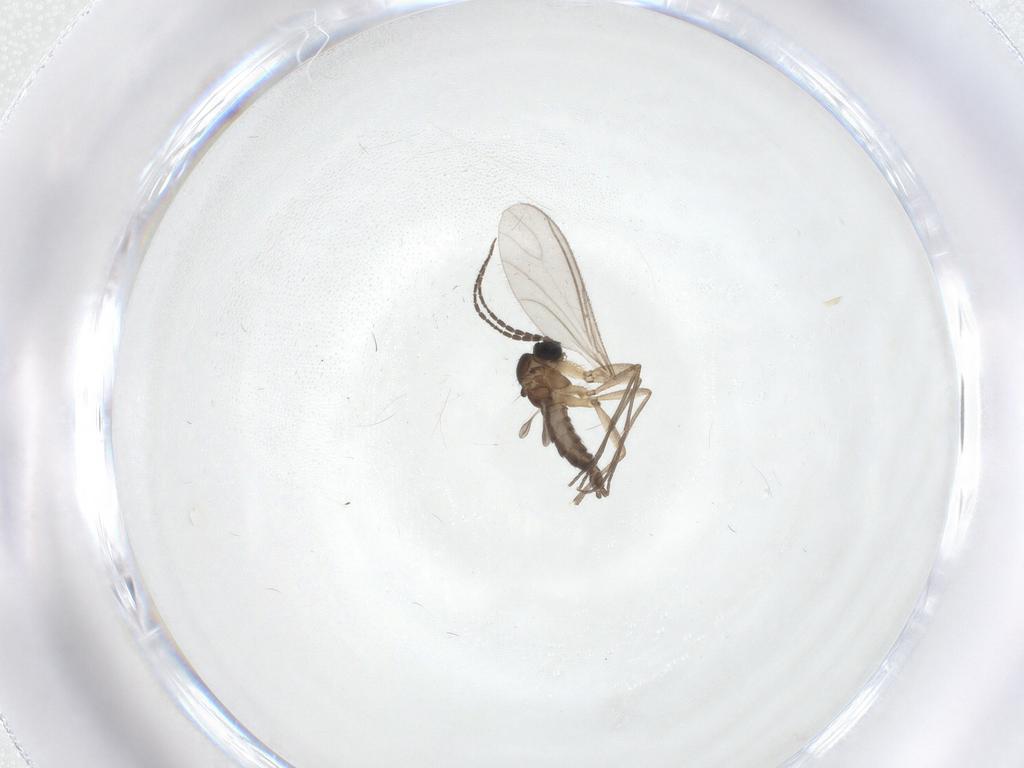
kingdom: Animalia
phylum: Arthropoda
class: Insecta
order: Diptera
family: Sciaridae
